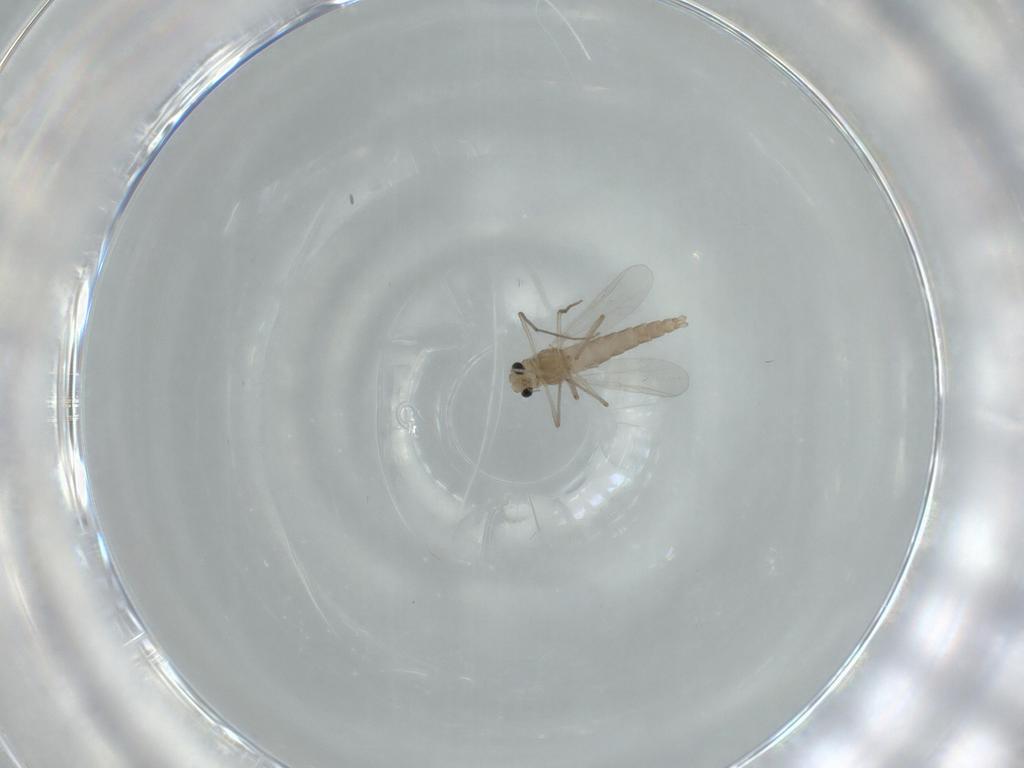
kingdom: Animalia
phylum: Arthropoda
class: Insecta
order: Diptera
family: Chironomidae
